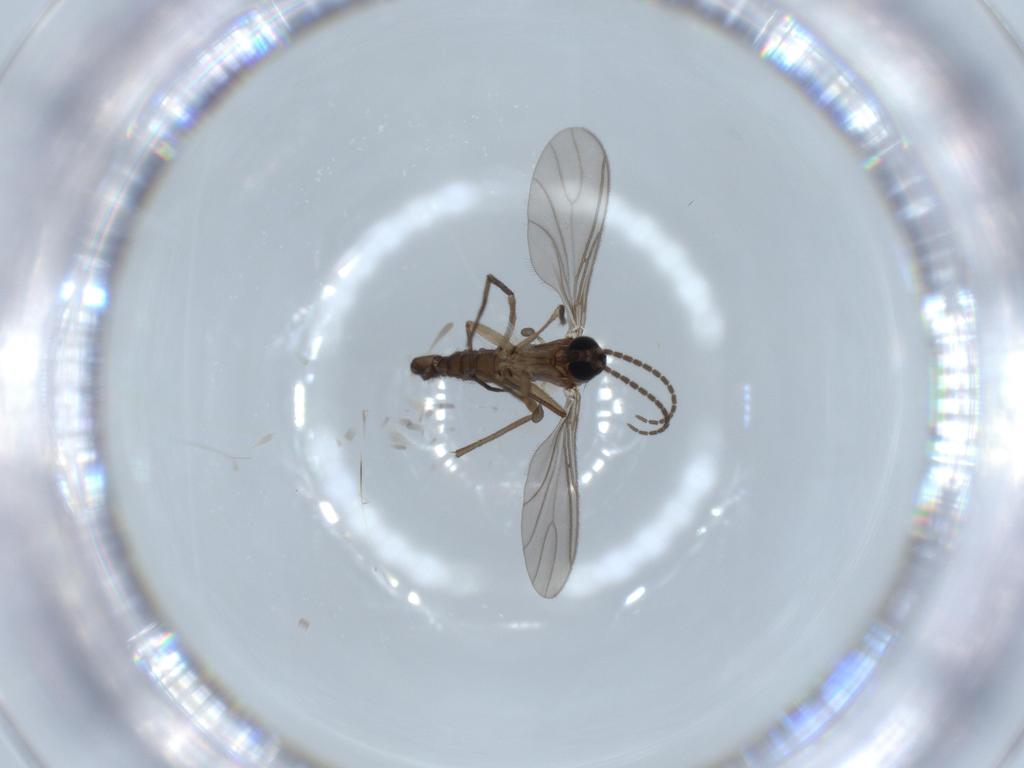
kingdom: Animalia
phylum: Arthropoda
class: Insecta
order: Diptera
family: Sciaridae
